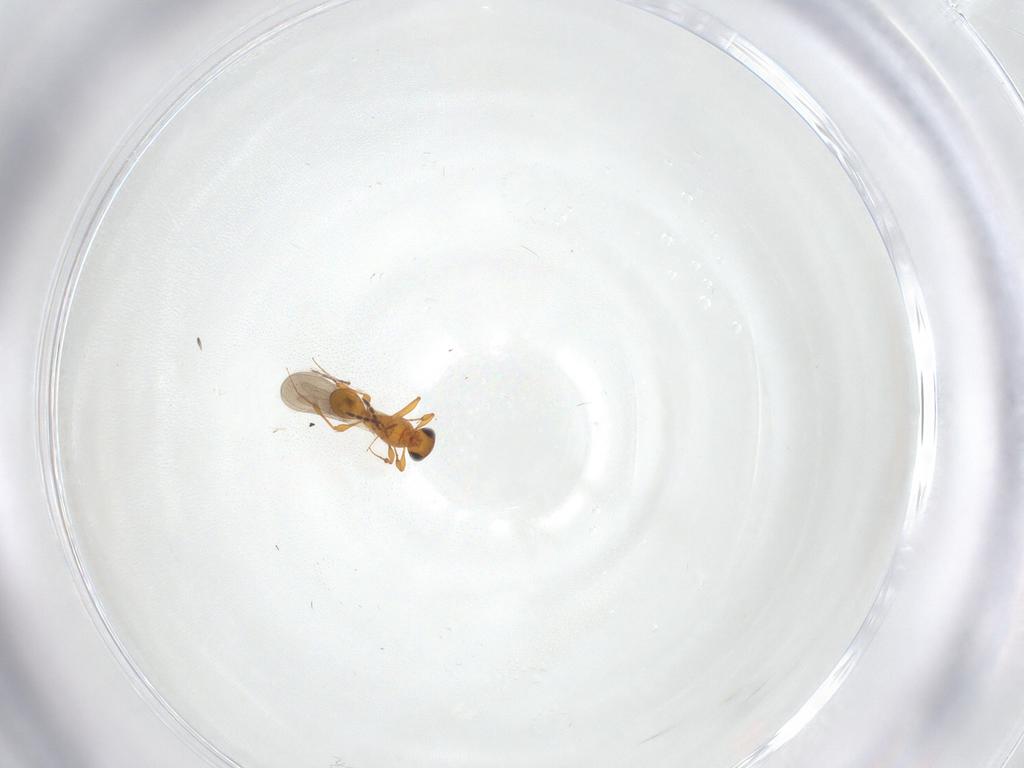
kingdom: Animalia
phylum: Arthropoda
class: Insecta
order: Hymenoptera
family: Platygastridae
